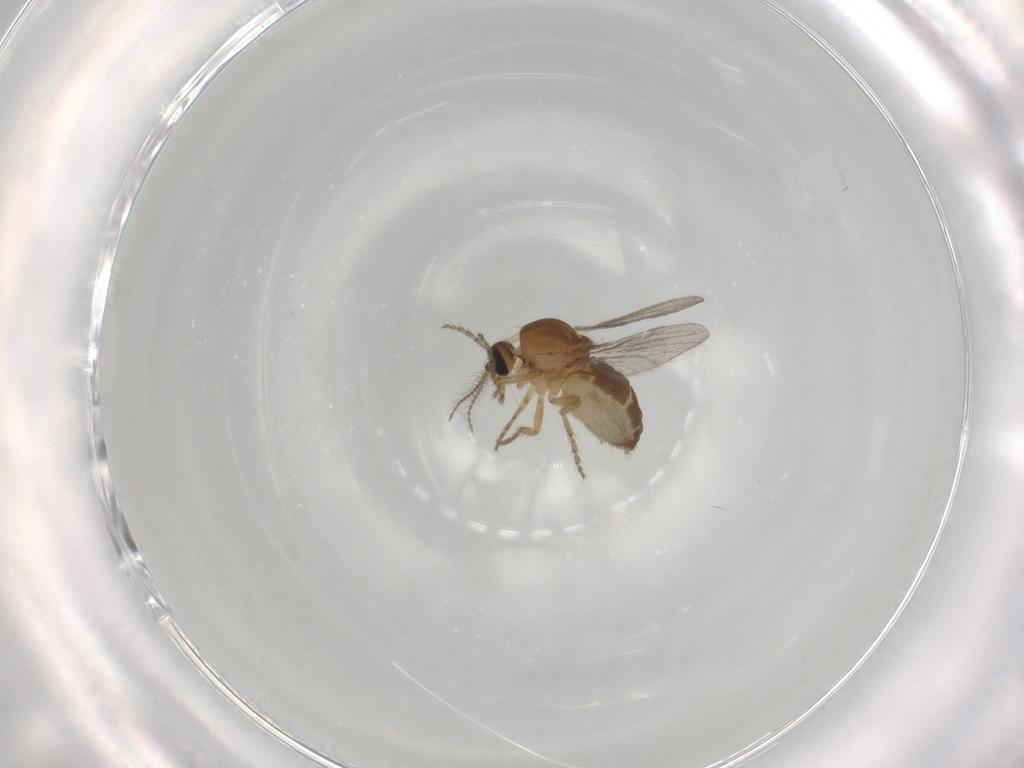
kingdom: Animalia
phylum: Arthropoda
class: Insecta
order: Diptera
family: Ceratopogonidae
